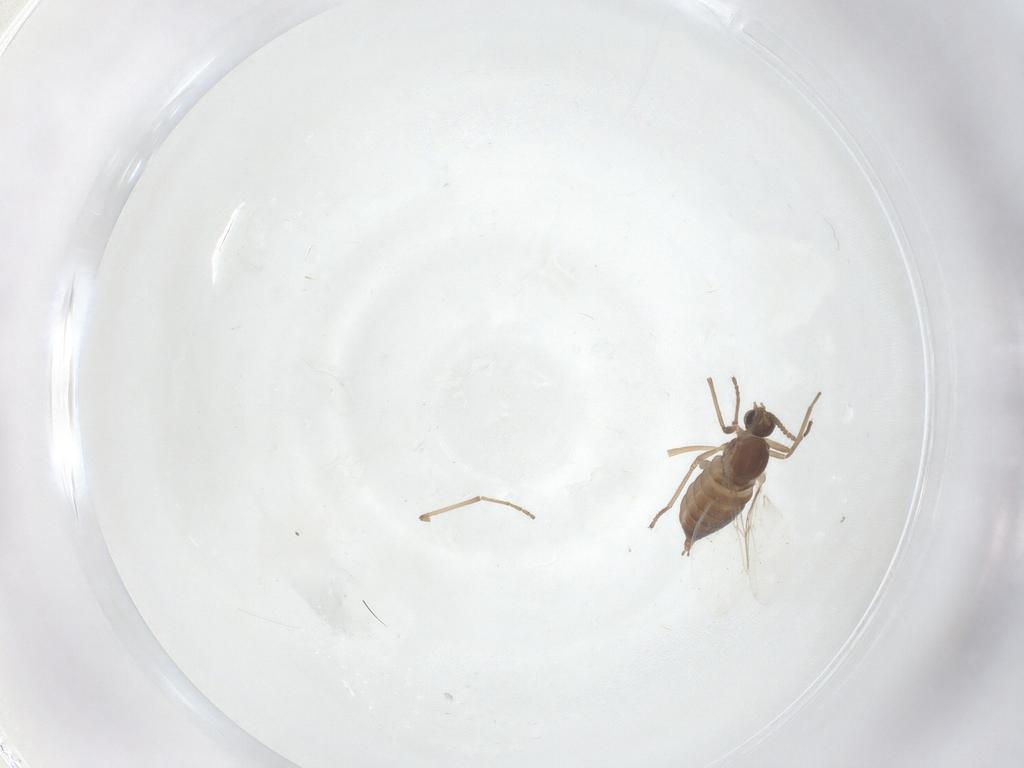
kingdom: Animalia
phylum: Arthropoda
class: Insecta
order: Diptera
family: Cecidomyiidae
